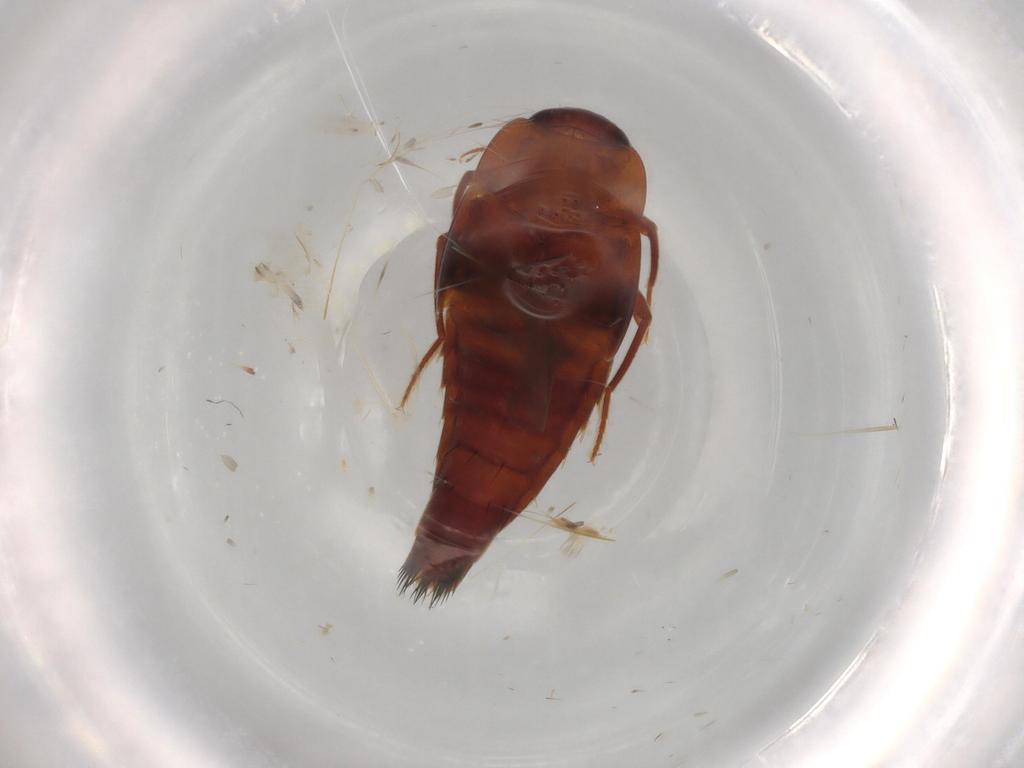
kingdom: Animalia
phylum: Arthropoda
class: Insecta
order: Coleoptera
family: Staphylinidae
